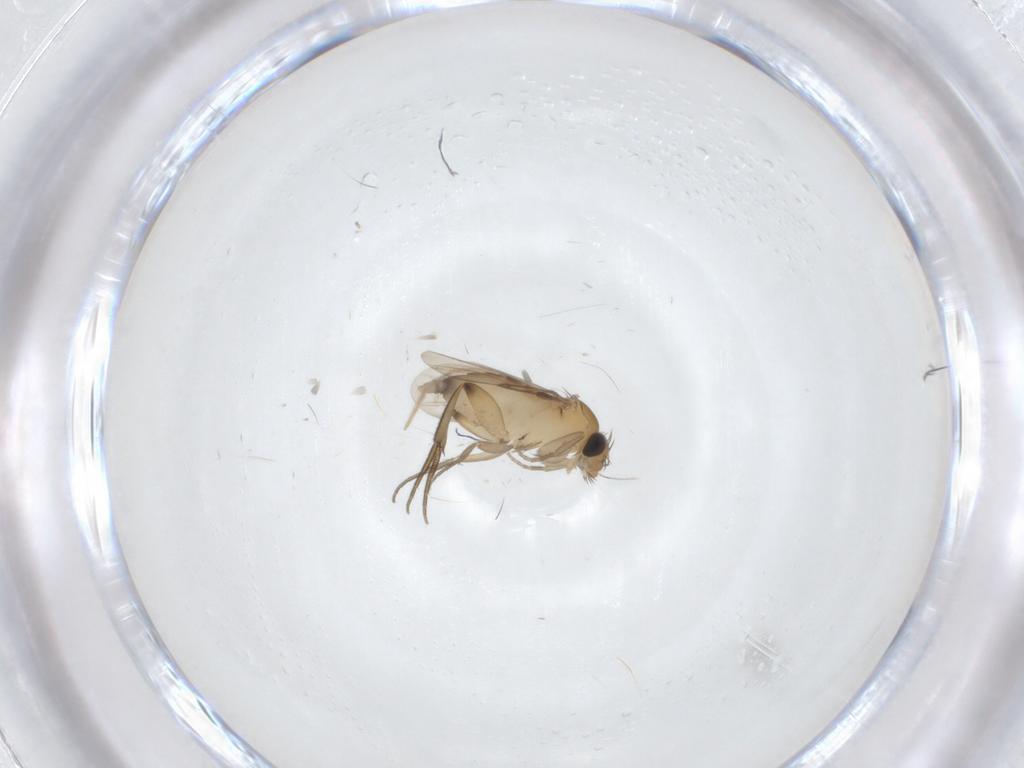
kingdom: Animalia
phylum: Arthropoda
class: Insecta
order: Diptera
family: Phoridae
